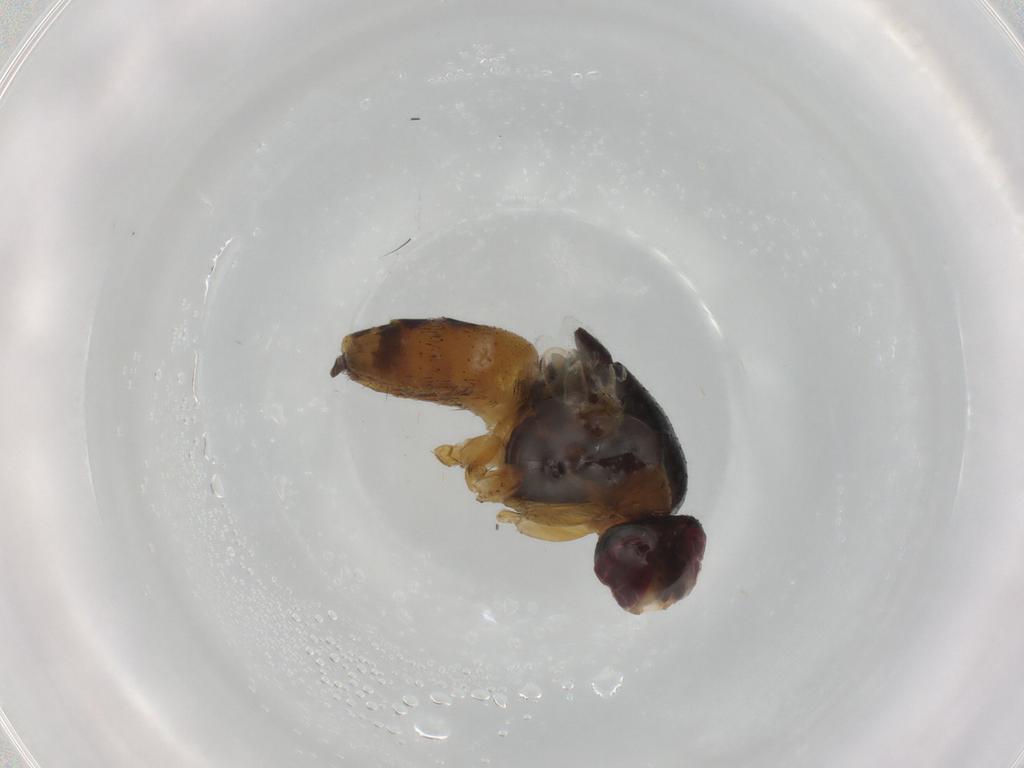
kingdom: Animalia
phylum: Arthropoda
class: Insecta
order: Diptera
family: Muscidae
